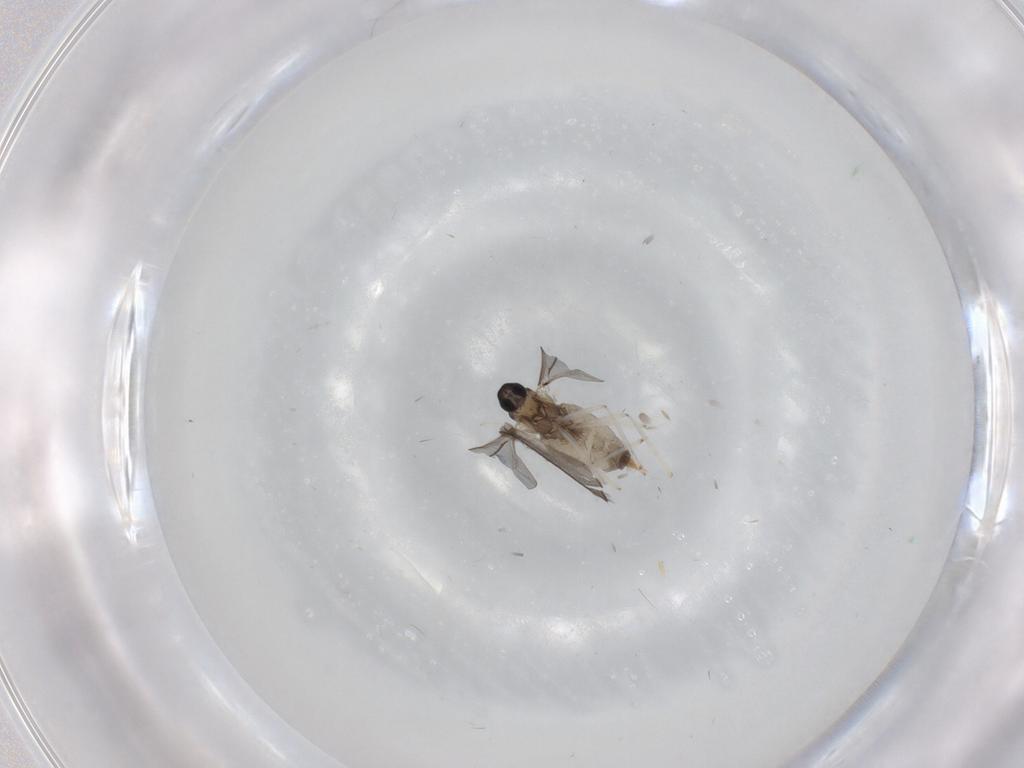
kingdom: Animalia
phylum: Arthropoda
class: Insecta
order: Diptera
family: Cecidomyiidae
